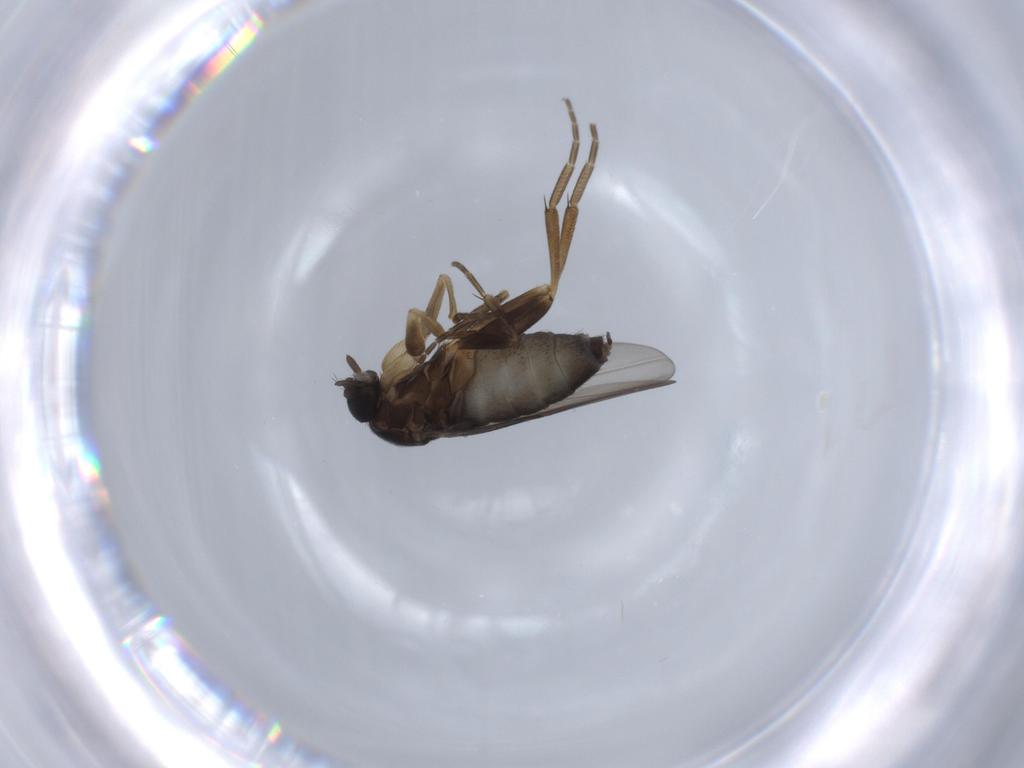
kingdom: Animalia
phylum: Arthropoda
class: Insecta
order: Diptera
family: Phoridae
